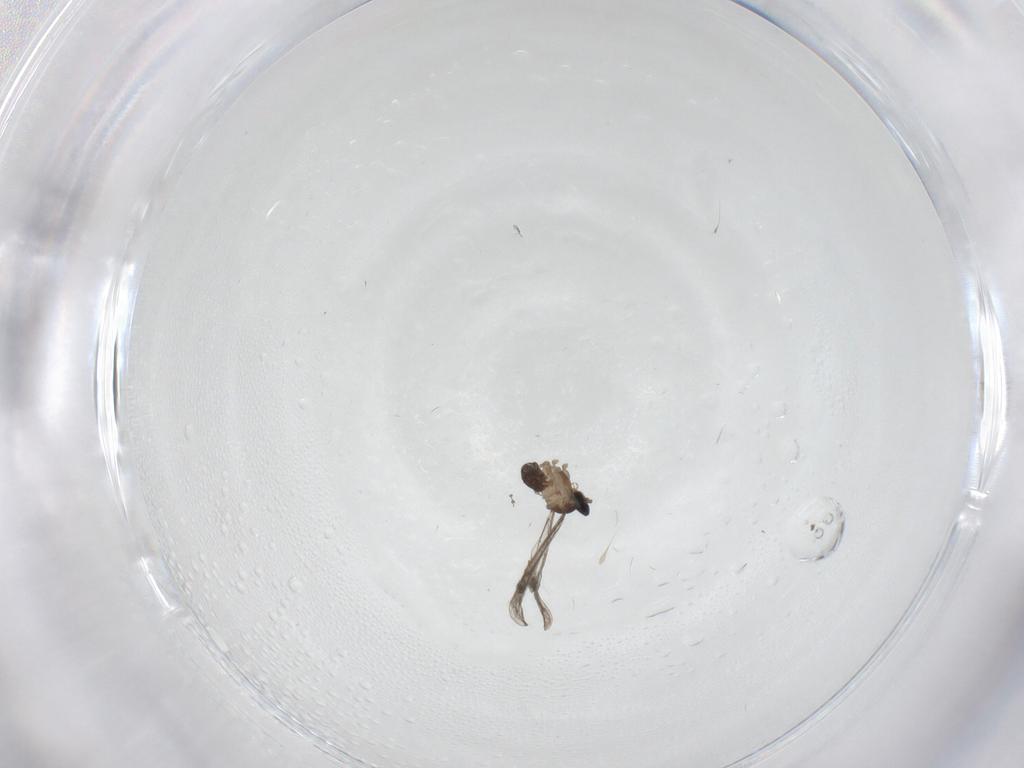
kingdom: Animalia
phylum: Arthropoda
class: Insecta
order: Diptera
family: Cecidomyiidae
